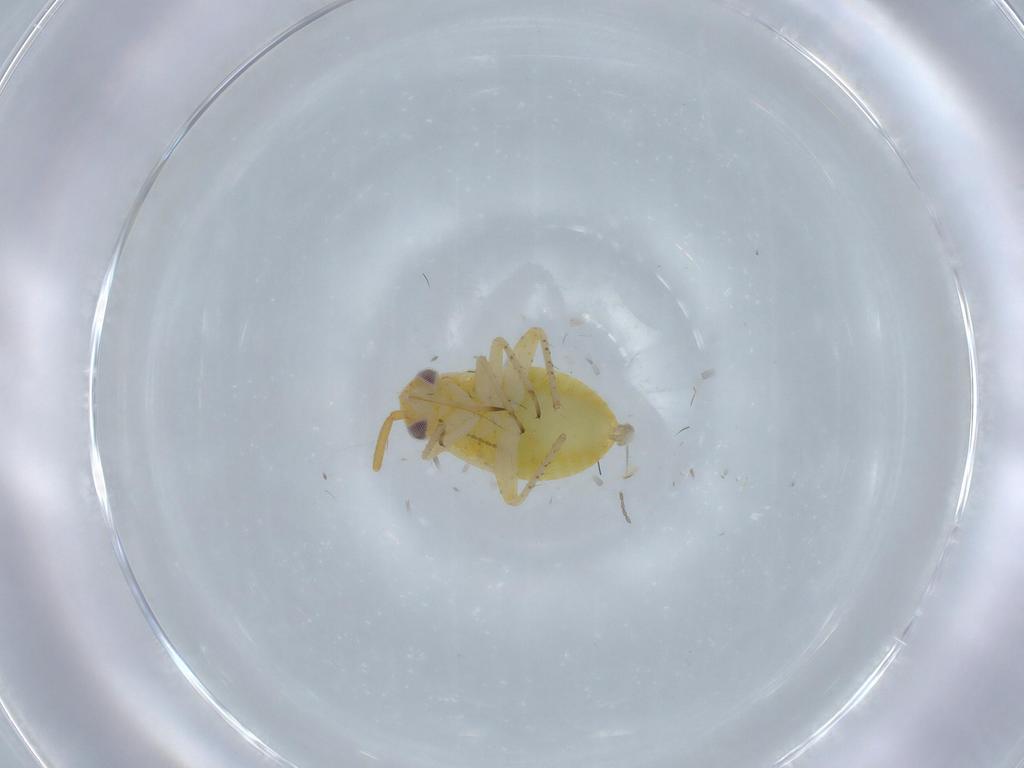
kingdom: Animalia
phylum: Arthropoda
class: Insecta
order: Hemiptera
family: Miridae
